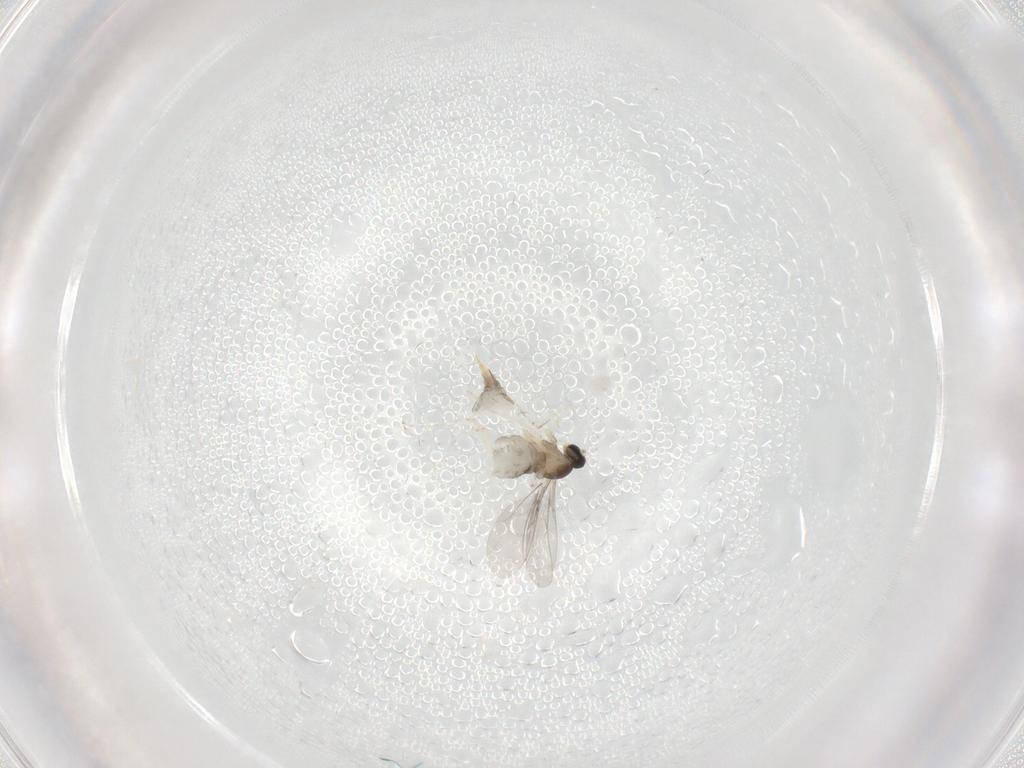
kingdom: Animalia
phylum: Arthropoda
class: Insecta
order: Diptera
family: Cecidomyiidae
